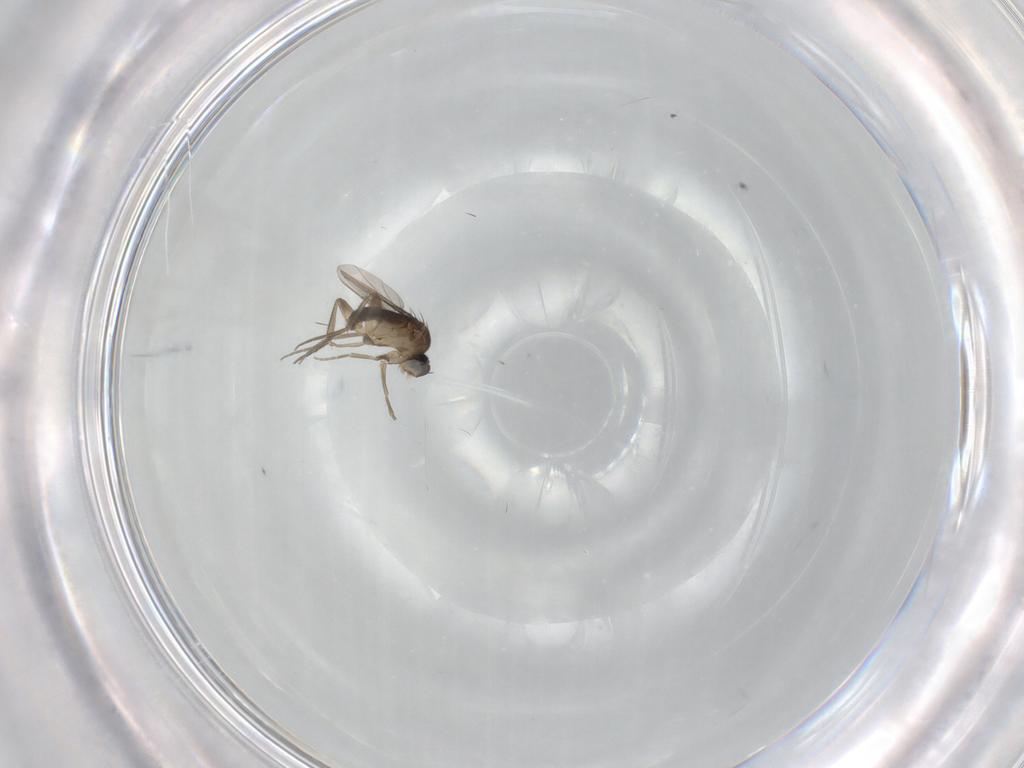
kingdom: Animalia
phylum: Arthropoda
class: Insecta
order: Diptera
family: Phoridae
